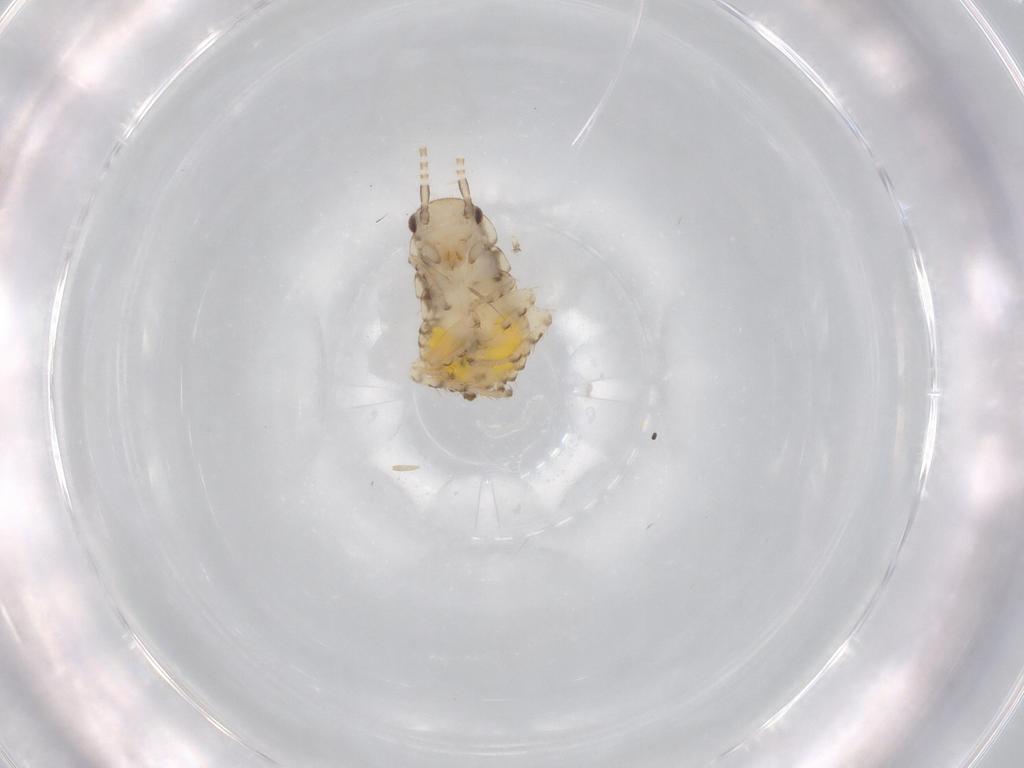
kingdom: Animalia
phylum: Arthropoda
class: Insecta
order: Blattodea
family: Ectobiidae
